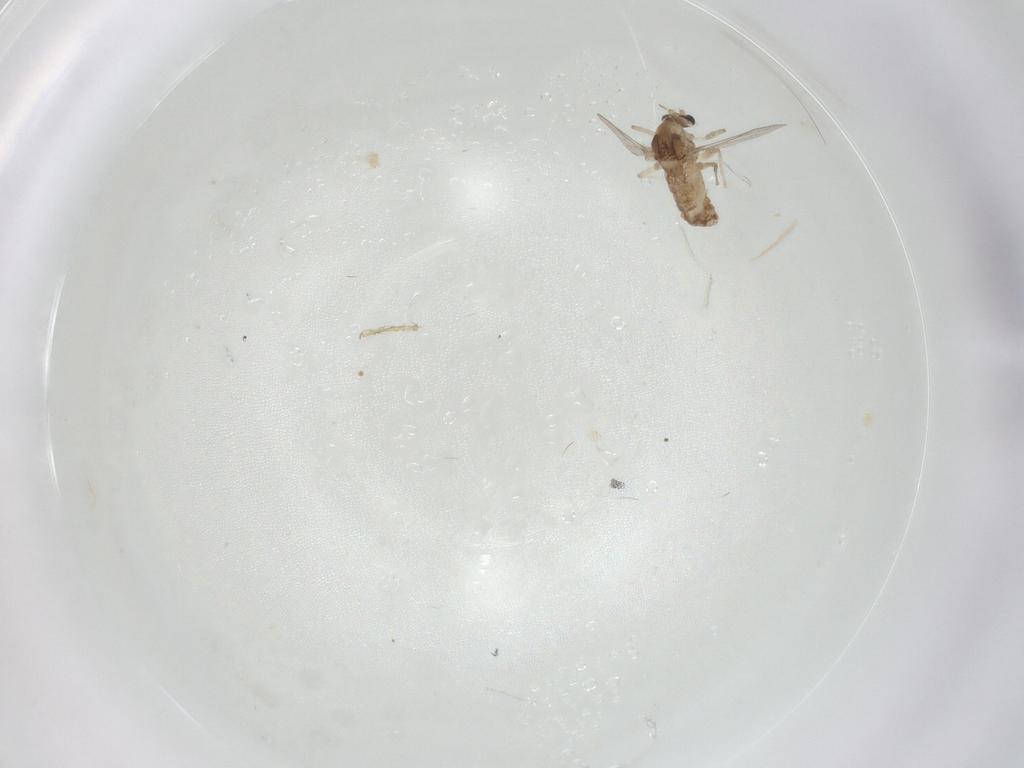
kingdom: Animalia
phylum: Arthropoda
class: Insecta
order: Diptera
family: Chironomidae
